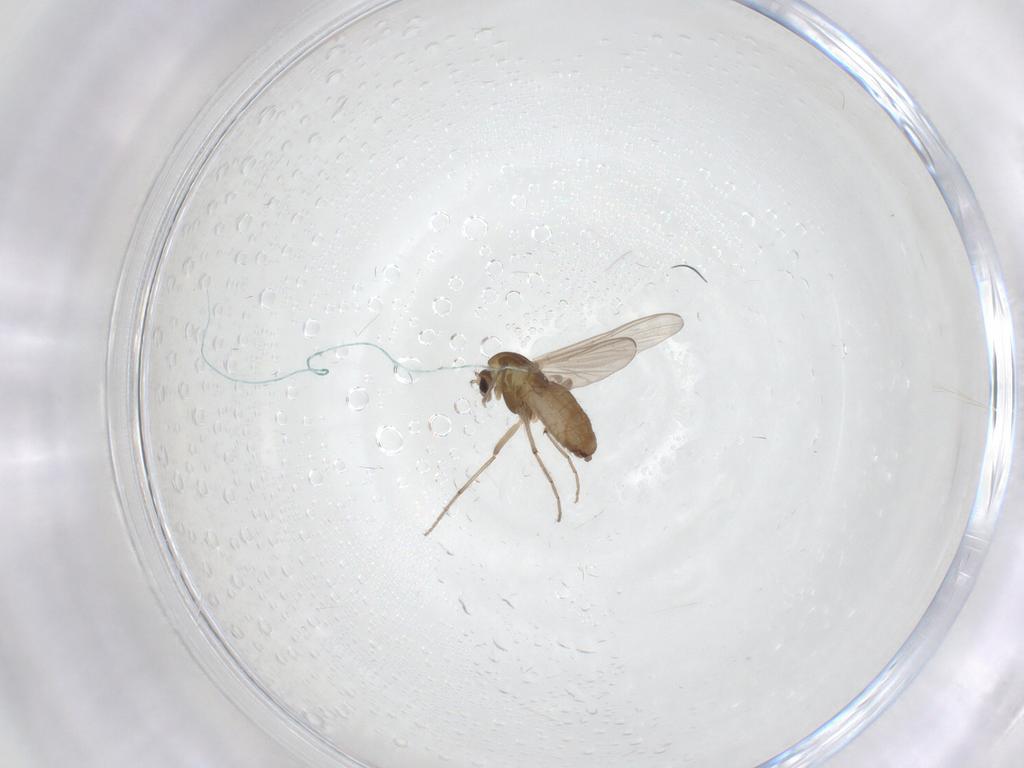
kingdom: Animalia
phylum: Arthropoda
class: Insecta
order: Diptera
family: Chironomidae
